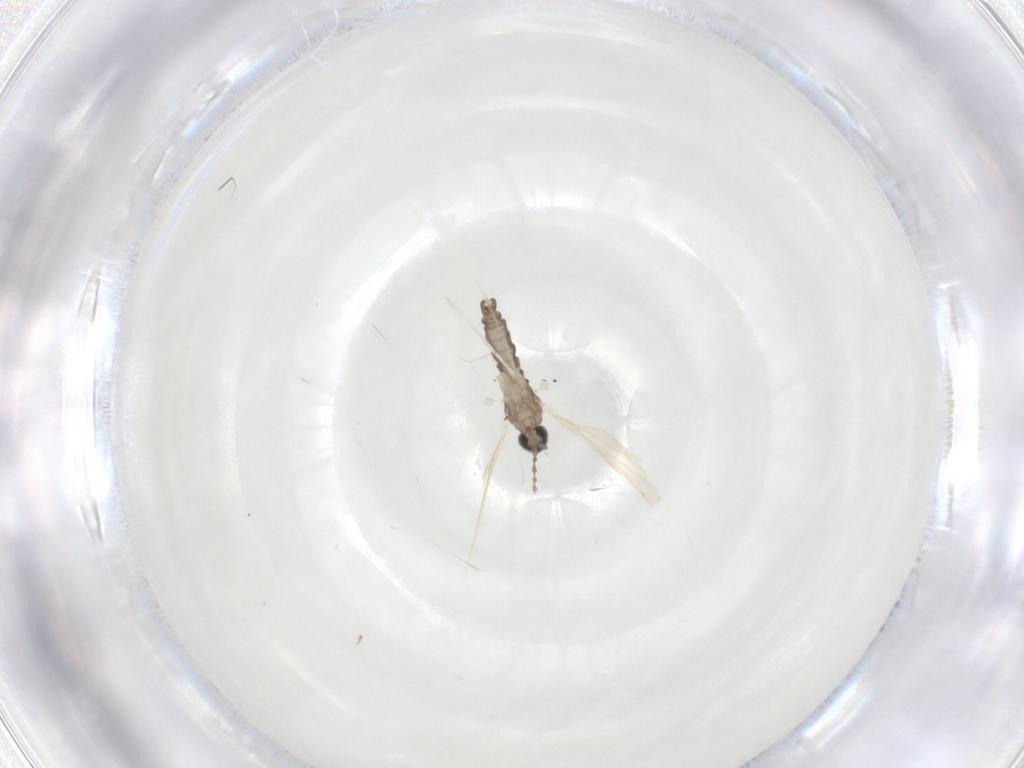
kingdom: Animalia
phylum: Arthropoda
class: Insecta
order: Diptera
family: Cecidomyiidae
